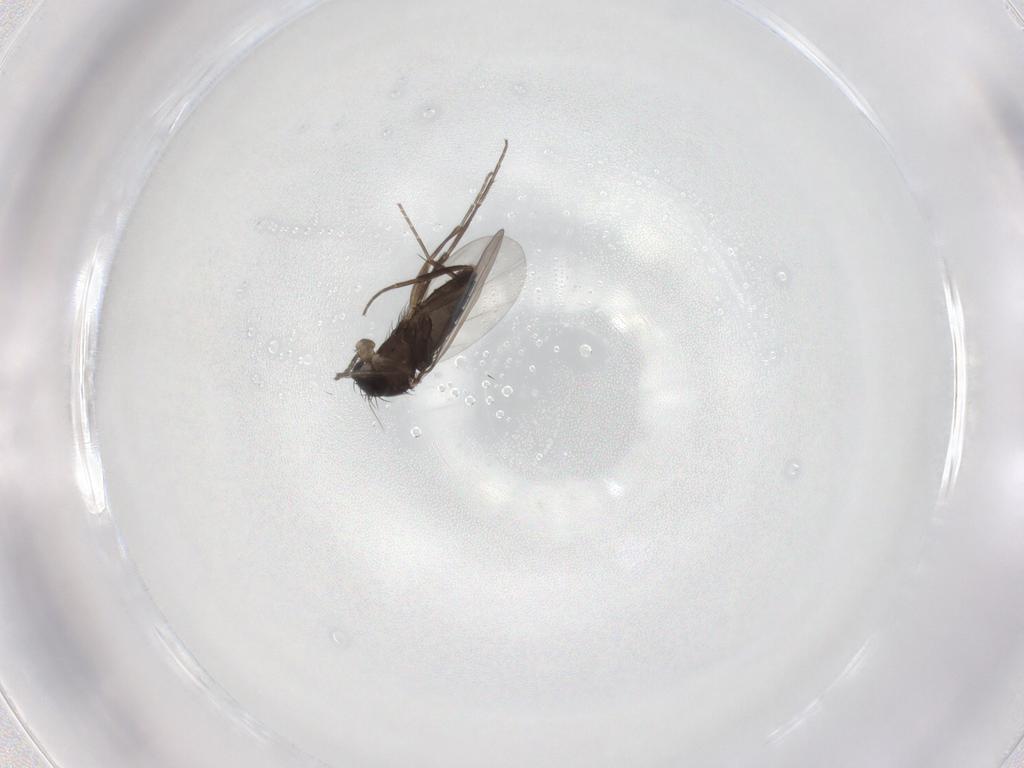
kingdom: Animalia
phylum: Arthropoda
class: Insecta
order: Diptera
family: Phoridae
